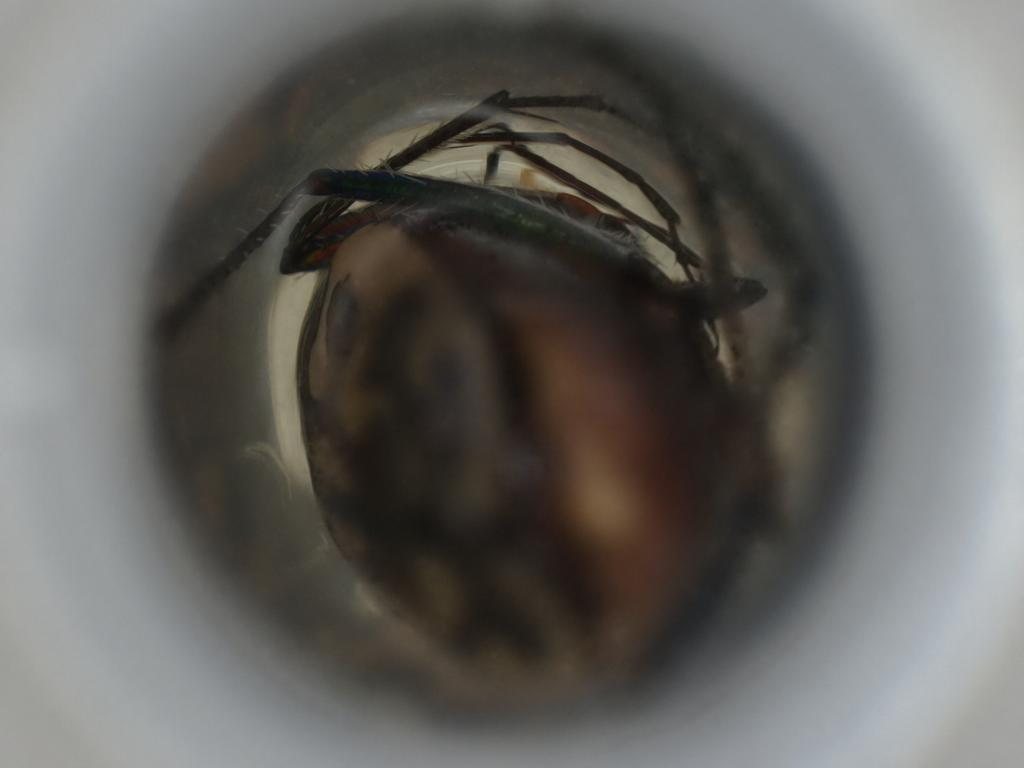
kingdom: Animalia
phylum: Arthropoda
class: Insecta
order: Coleoptera
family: Carabidae
